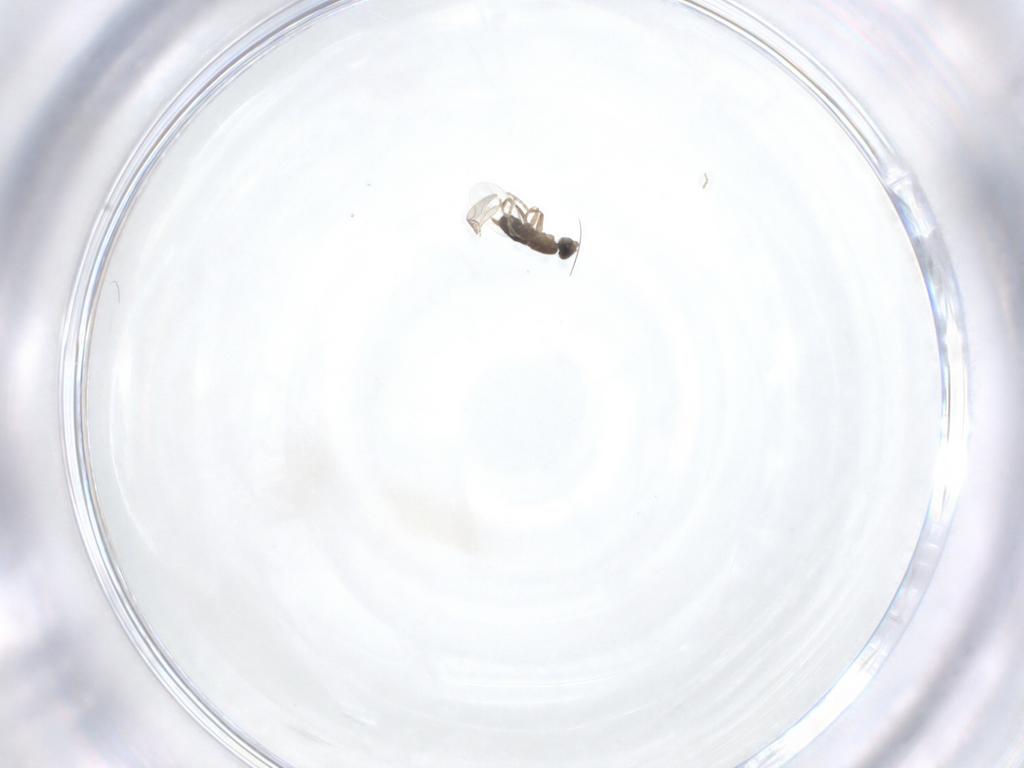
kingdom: Animalia
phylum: Arthropoda
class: Insecta
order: Diptera
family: Phoridae
